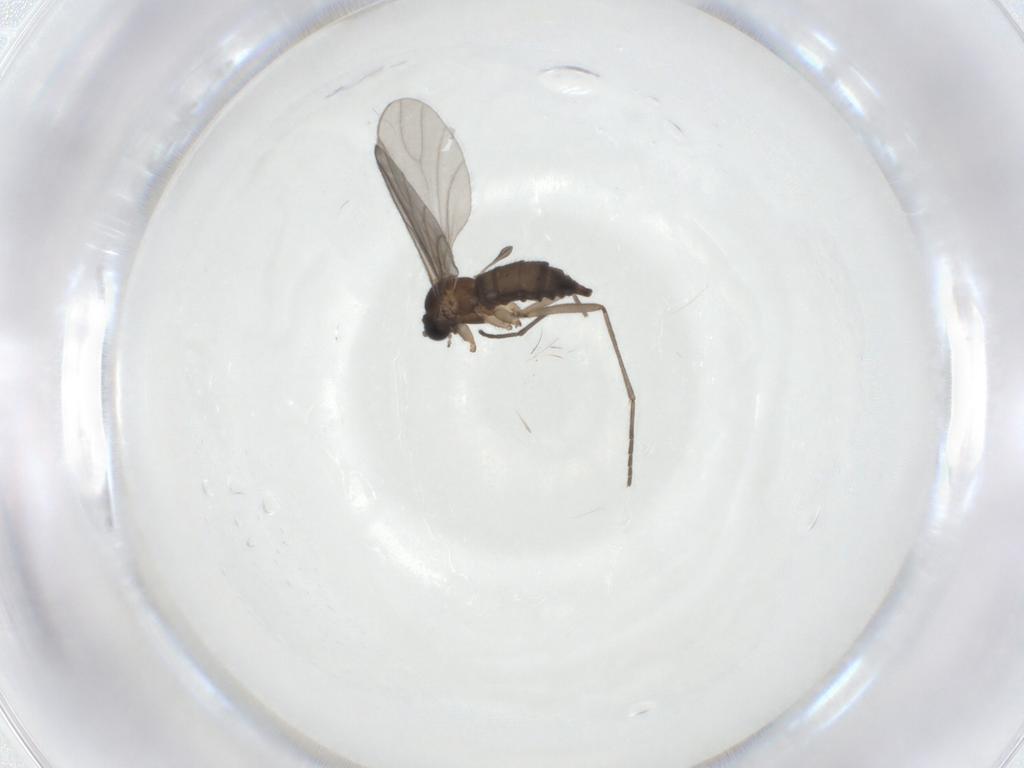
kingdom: Animalia
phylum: Arthropoda
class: Insecta
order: Diptera
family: Sciaridae
